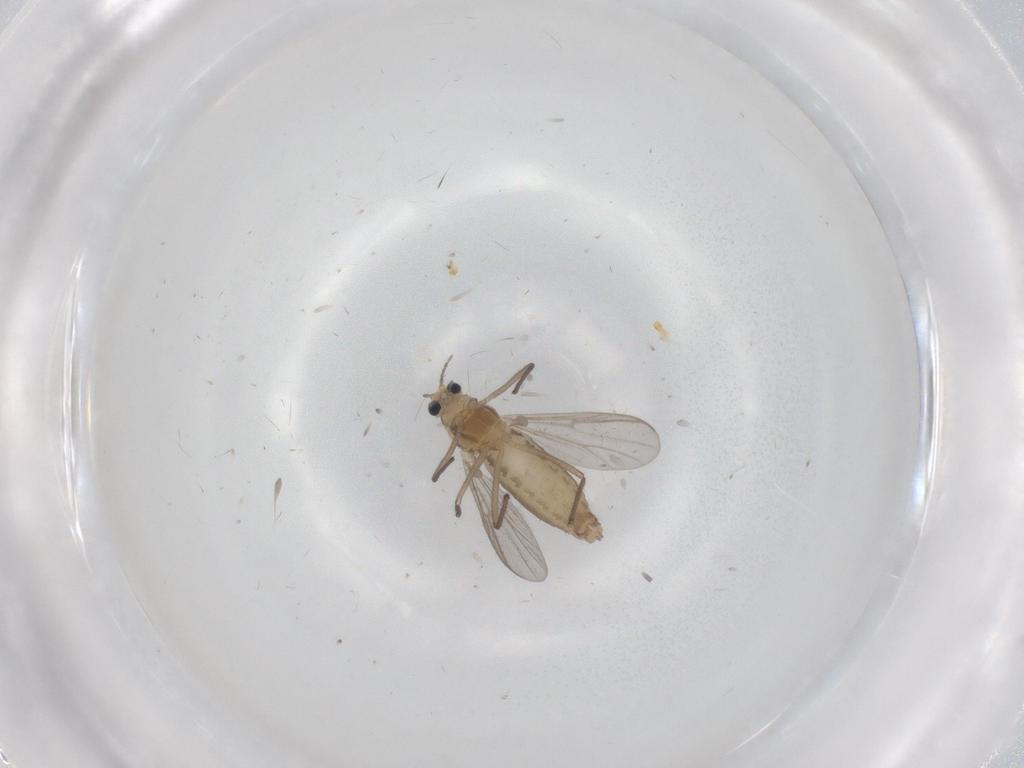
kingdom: Animalia
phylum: Arthropoda
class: Insecta
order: Diptera
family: Chironomidae
